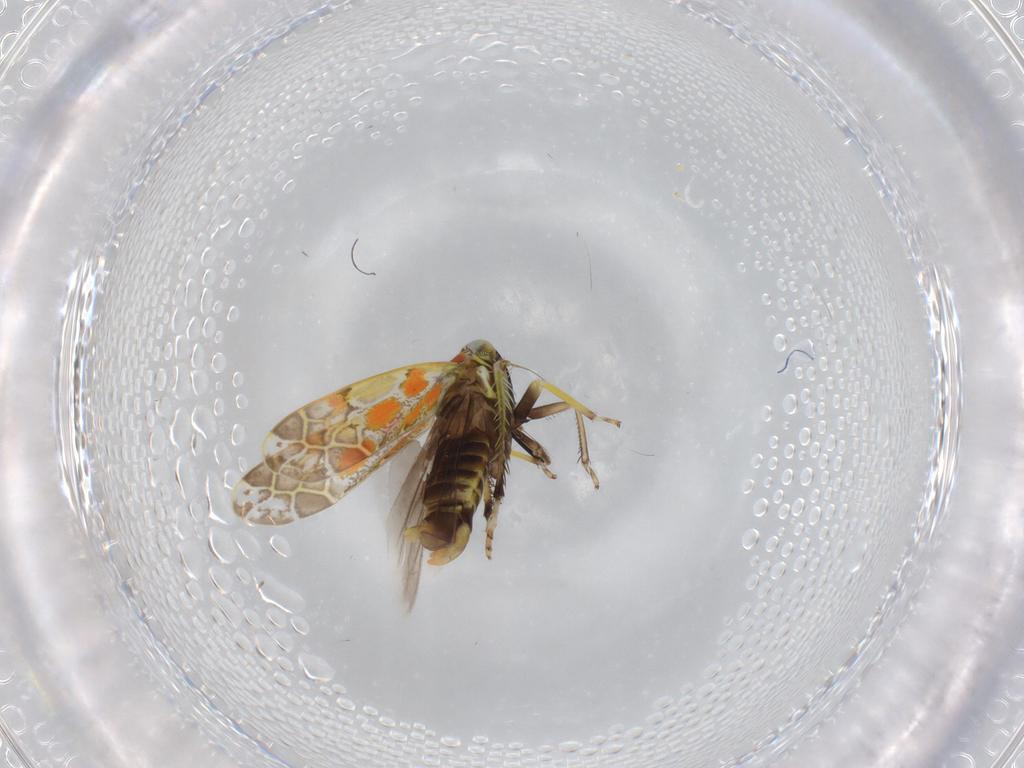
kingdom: Animalia
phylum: Arthropoda
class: Insecta
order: Hemiptera
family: Cicadellidae
